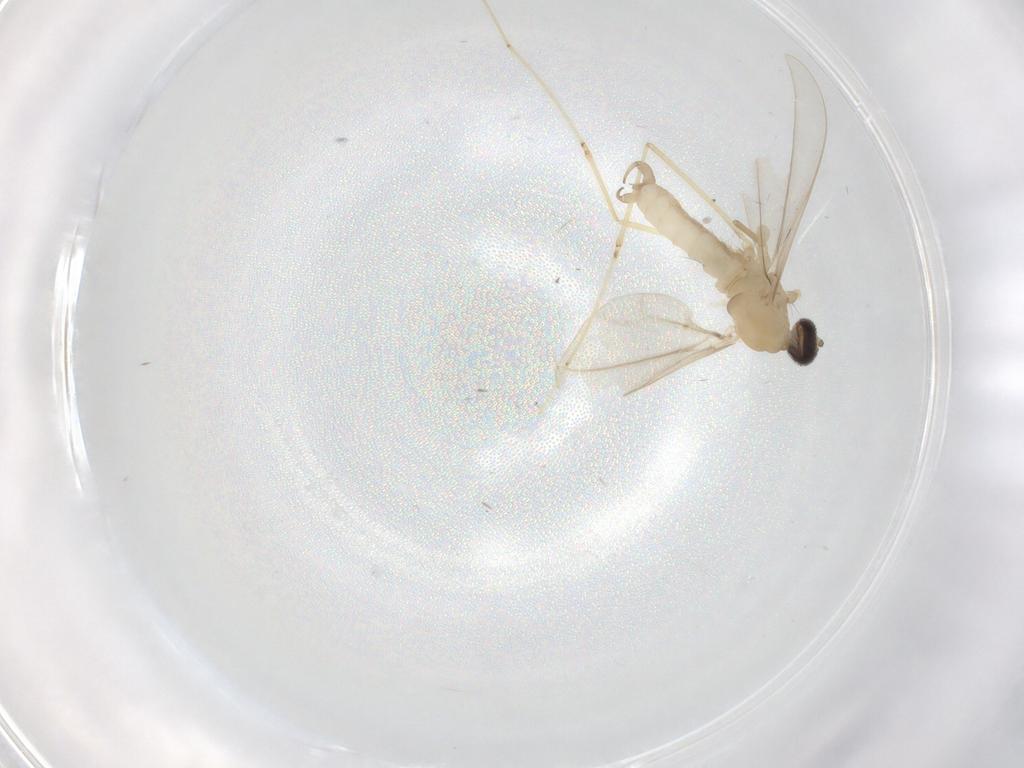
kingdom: Animalia
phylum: Arthropoda
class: Insecta
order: Diptera
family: Cecidomyiidae
